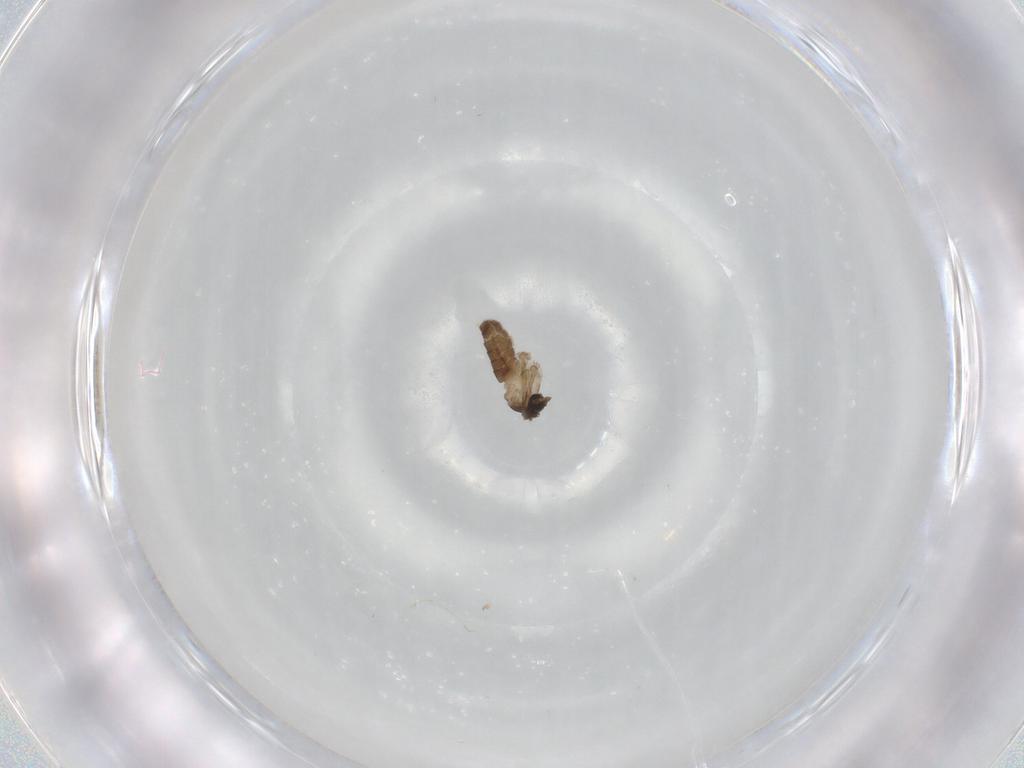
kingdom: Animalia
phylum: Arthropoda
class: Insecta
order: Diptera
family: Cecidomyiidae
